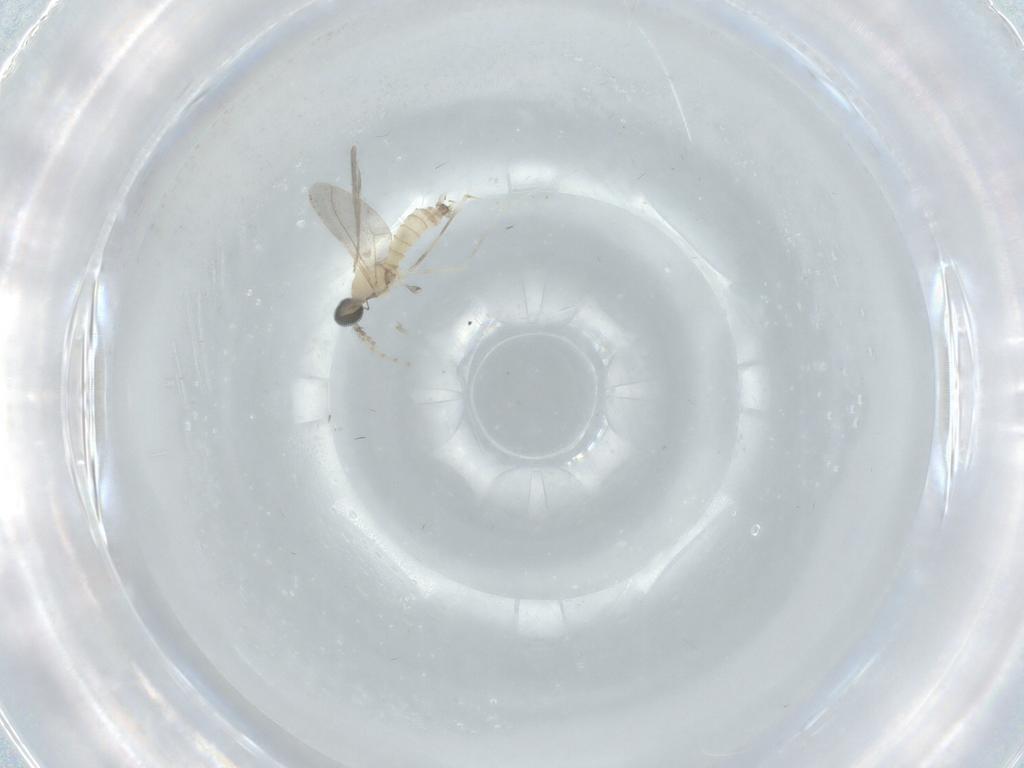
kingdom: Animalia
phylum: Arthropoda
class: Insecta
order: Diptera
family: Cecidomyiidae
